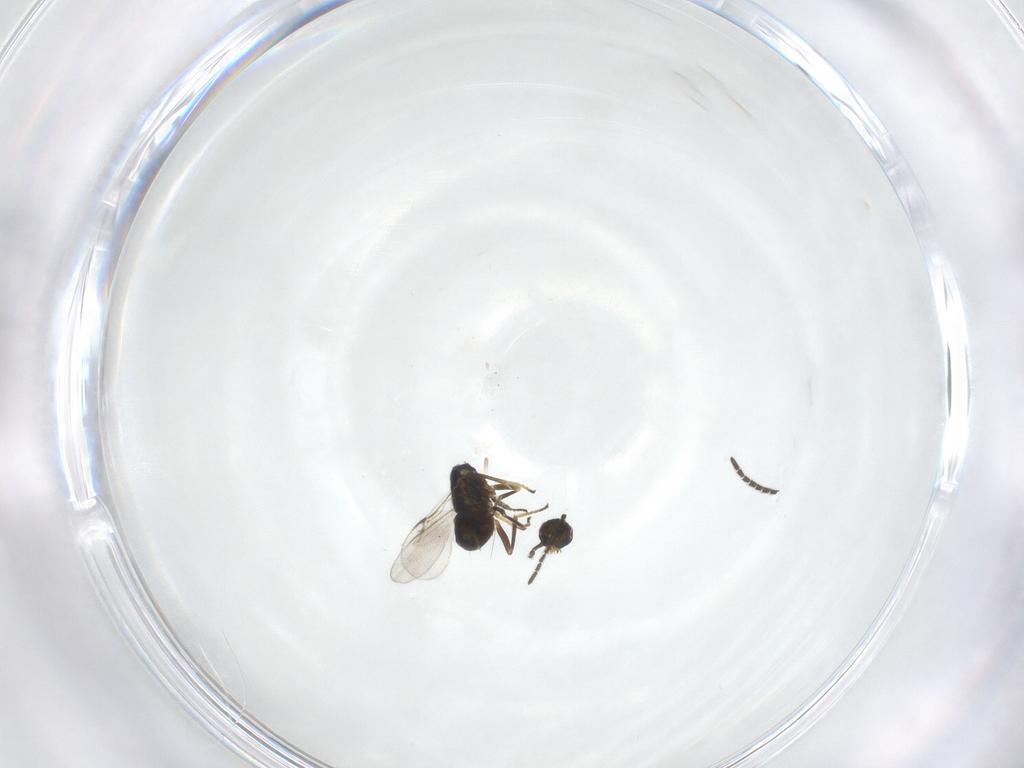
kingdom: Animalia
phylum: Arthropoda
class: Insecta
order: Hymenoptera
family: Encyrtidae
